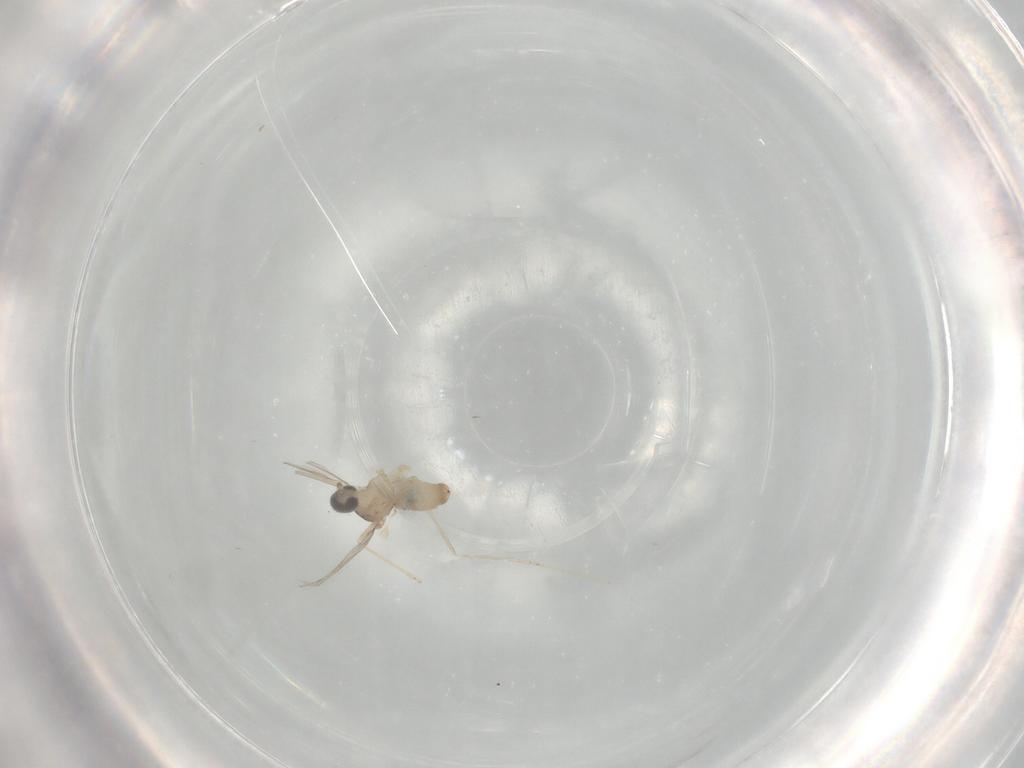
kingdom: Animalia
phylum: Arthropoda
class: Insecta
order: Diptera
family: Cecidomyiidae
